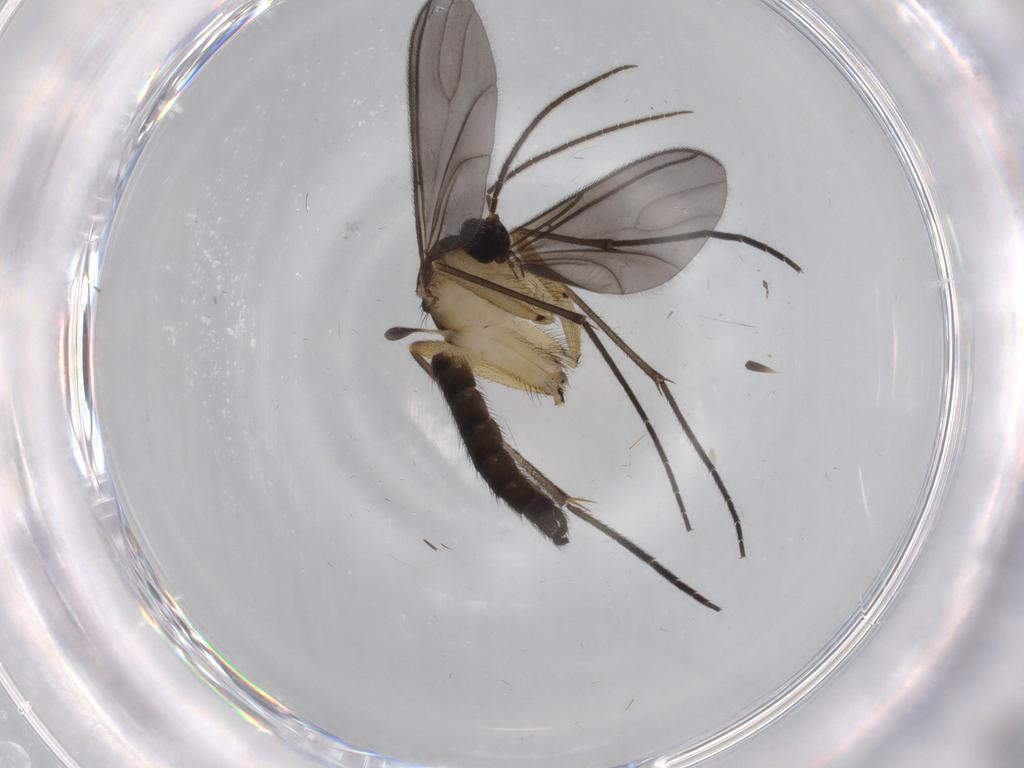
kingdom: Animalia
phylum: Arthropoda
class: Insecta
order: Diptera
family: Sciaridae
